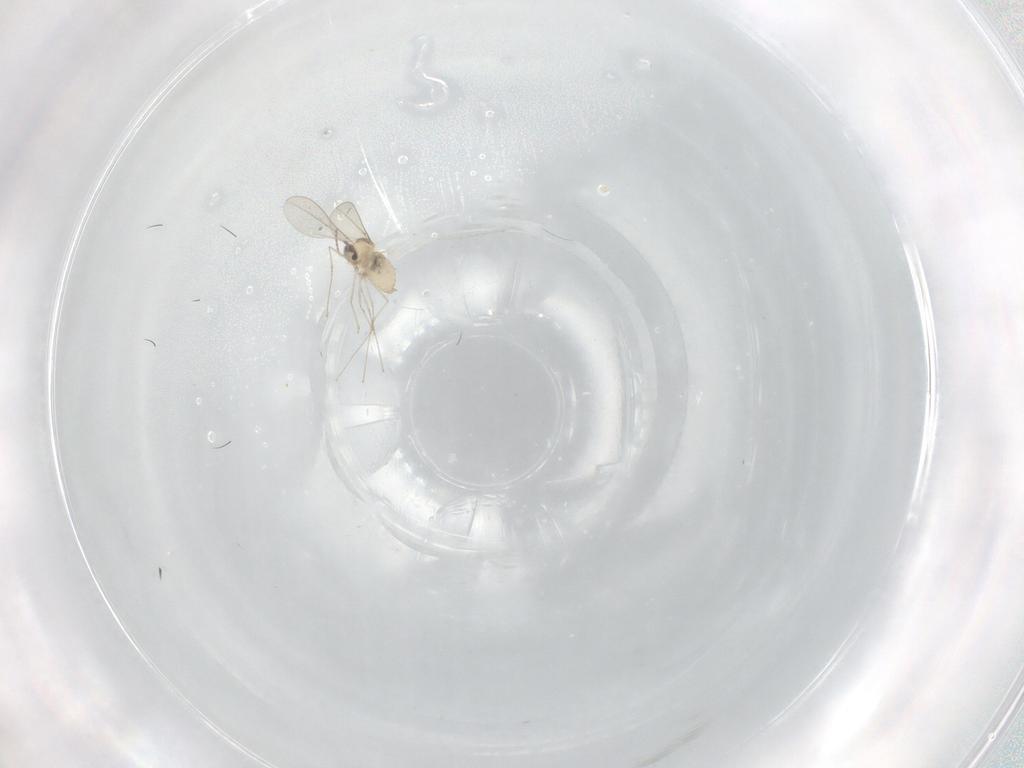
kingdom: Animalia
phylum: Arthropoda
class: Insecta
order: Diptera
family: Cecidomyiidae
